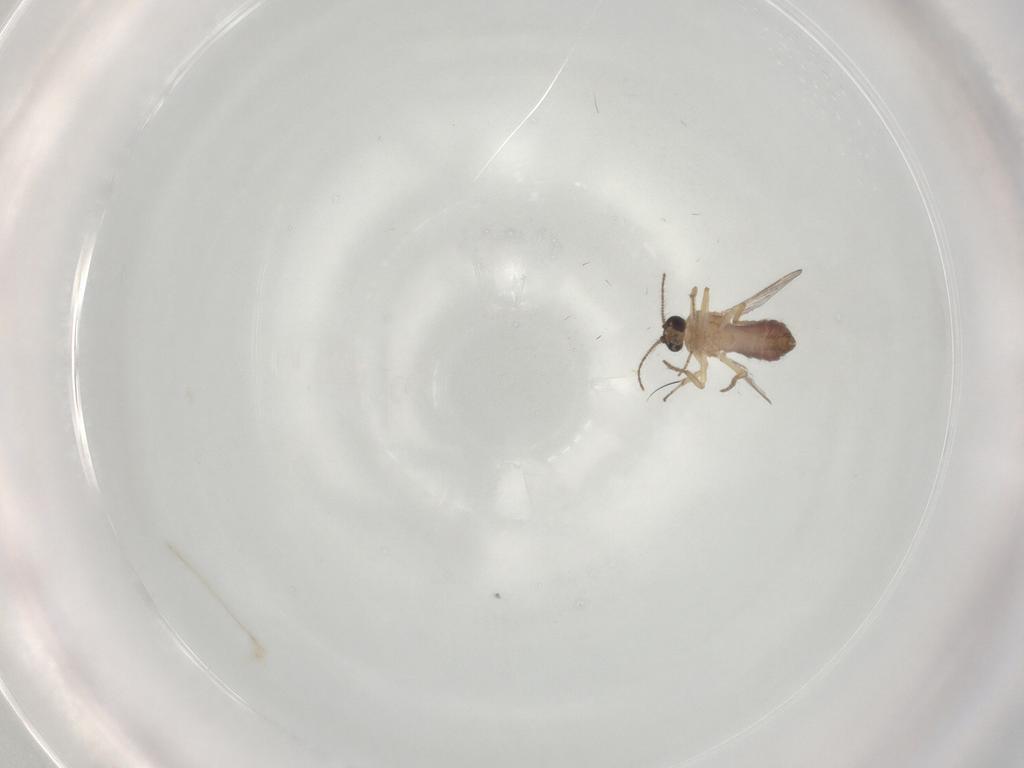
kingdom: Animalia
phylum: Arthropoda
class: Insecta
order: Diptera
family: Ceratopogonidae
